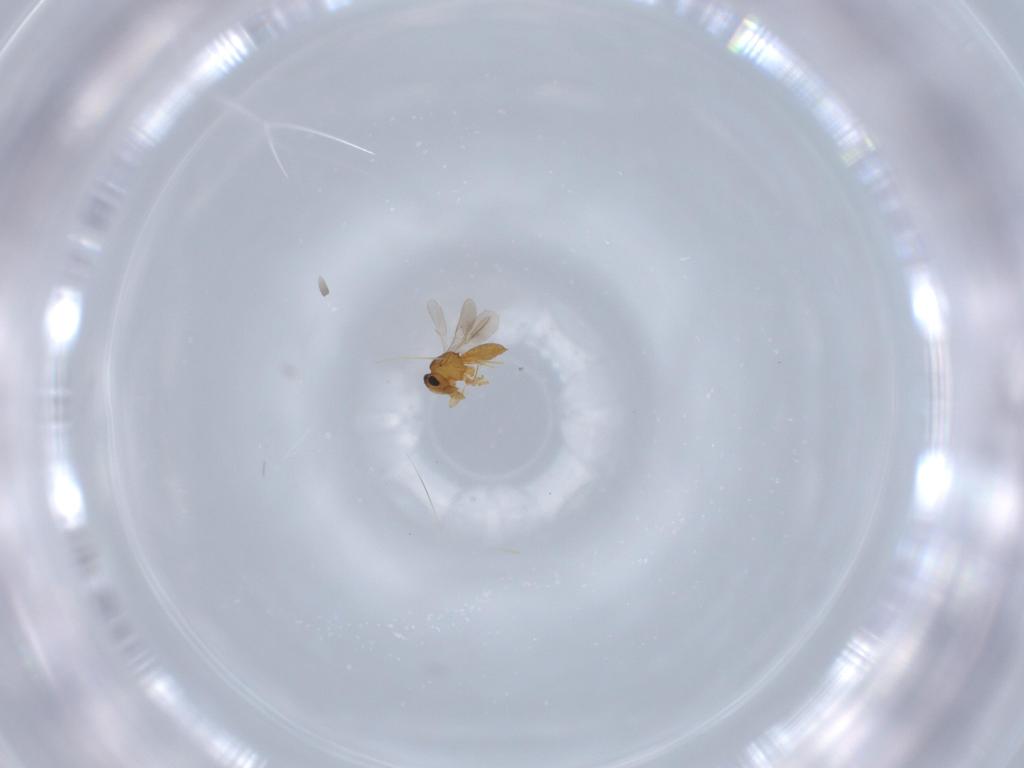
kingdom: Animalia
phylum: Arthropoda
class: Insecta
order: Hymenoptera
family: Scelionidae
